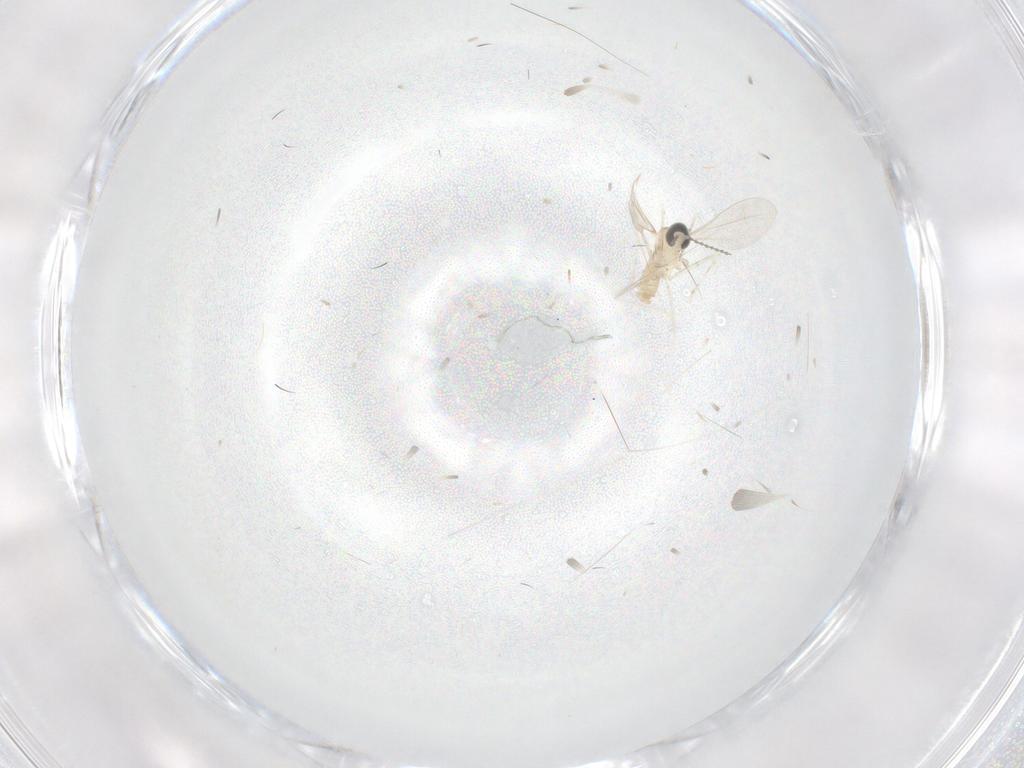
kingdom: Animalia
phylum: Arthropoda
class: Insecta
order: Diptera
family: Cecidomyiidae
